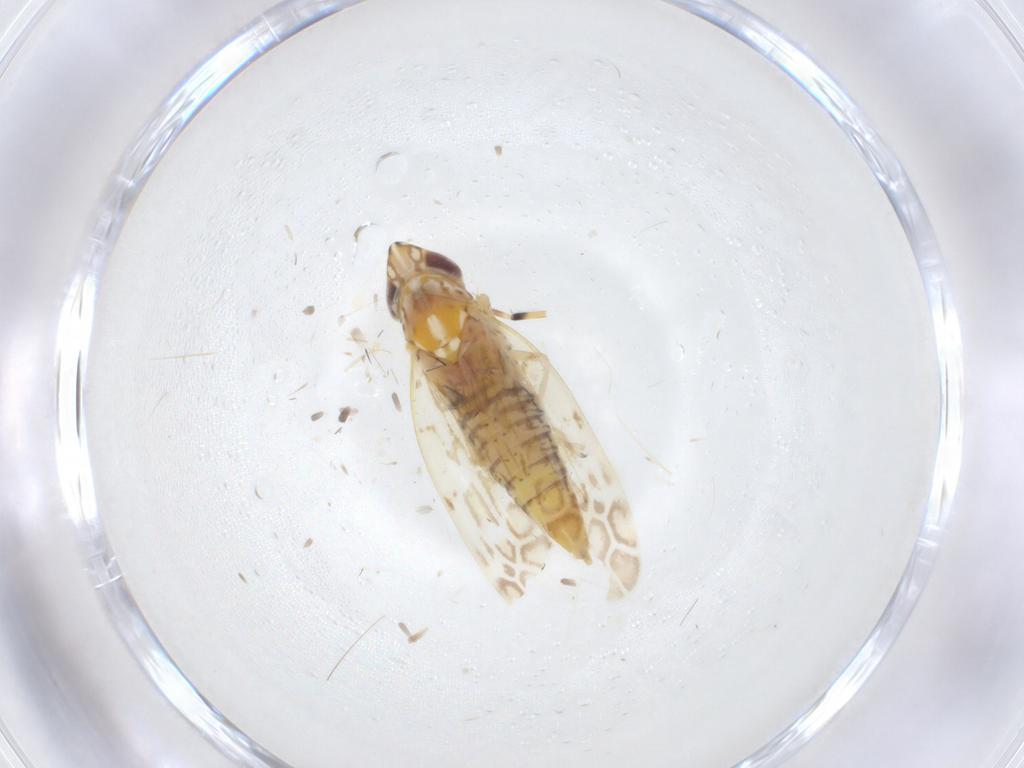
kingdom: Animalia
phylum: Arthropoda
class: Insecta
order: Hemiptera
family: Cicadellidae
